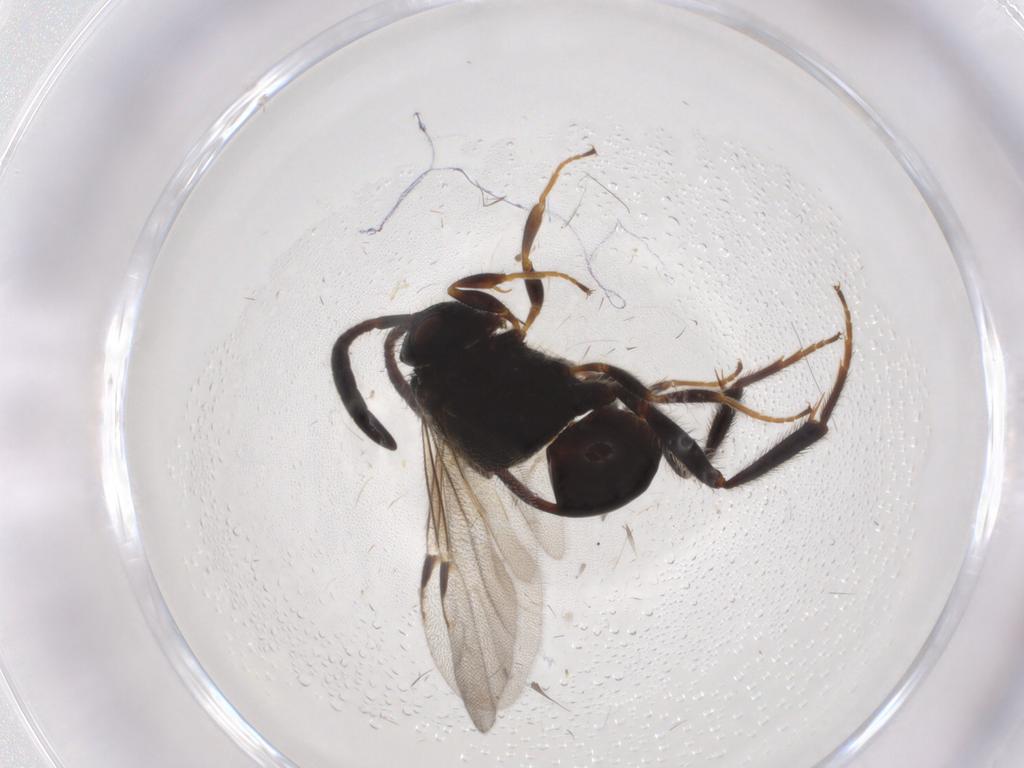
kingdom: Animalia
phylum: Arthropoda
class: Insecta
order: Hymenoptera
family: Evaniidae
